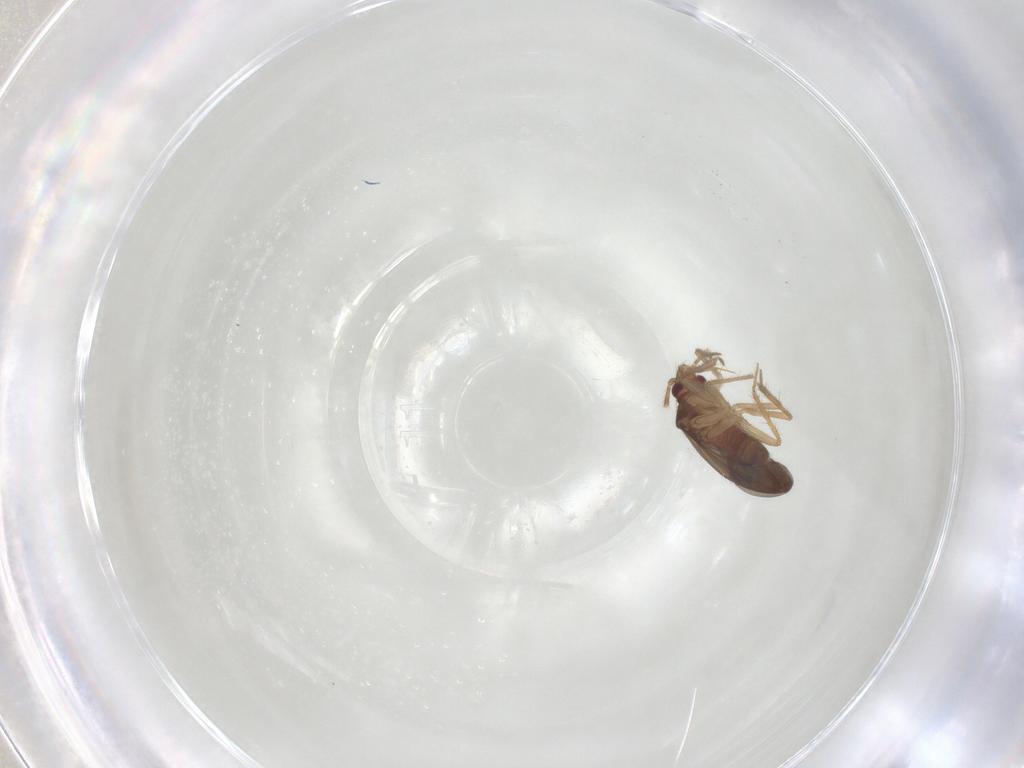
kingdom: Animalia
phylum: Arthropoda
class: Insecta
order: Hemiptera
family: Ceratocombidae
